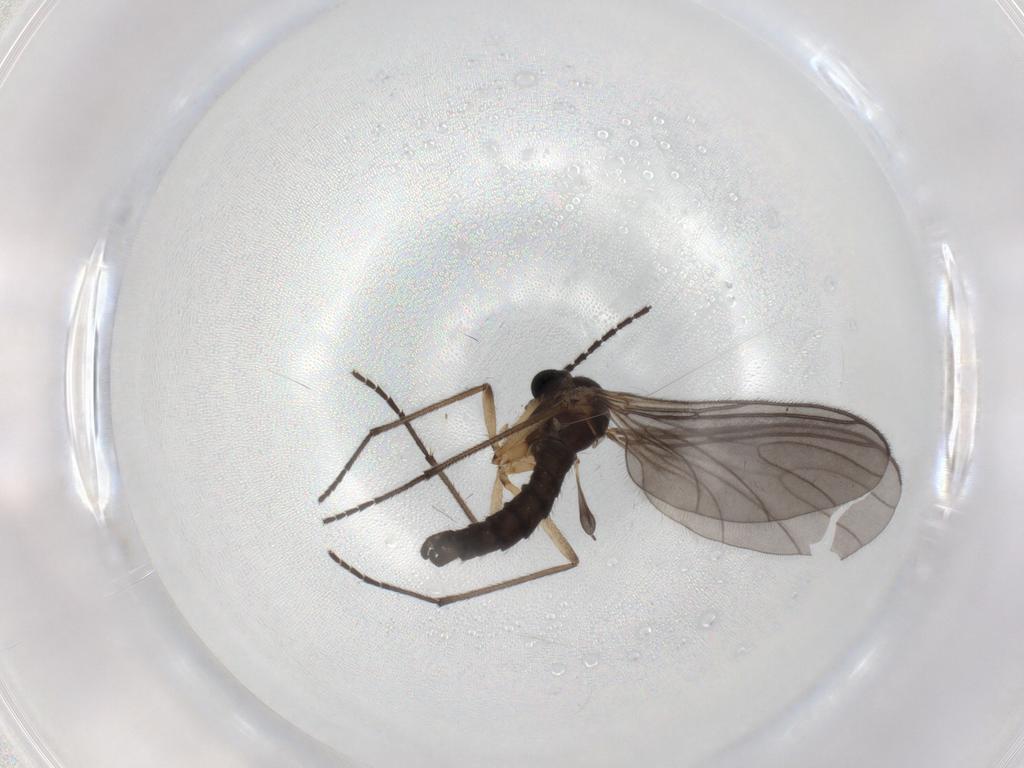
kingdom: Animalia
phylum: Arthropoda
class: Insecta
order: Diptera
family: Sciaridae
